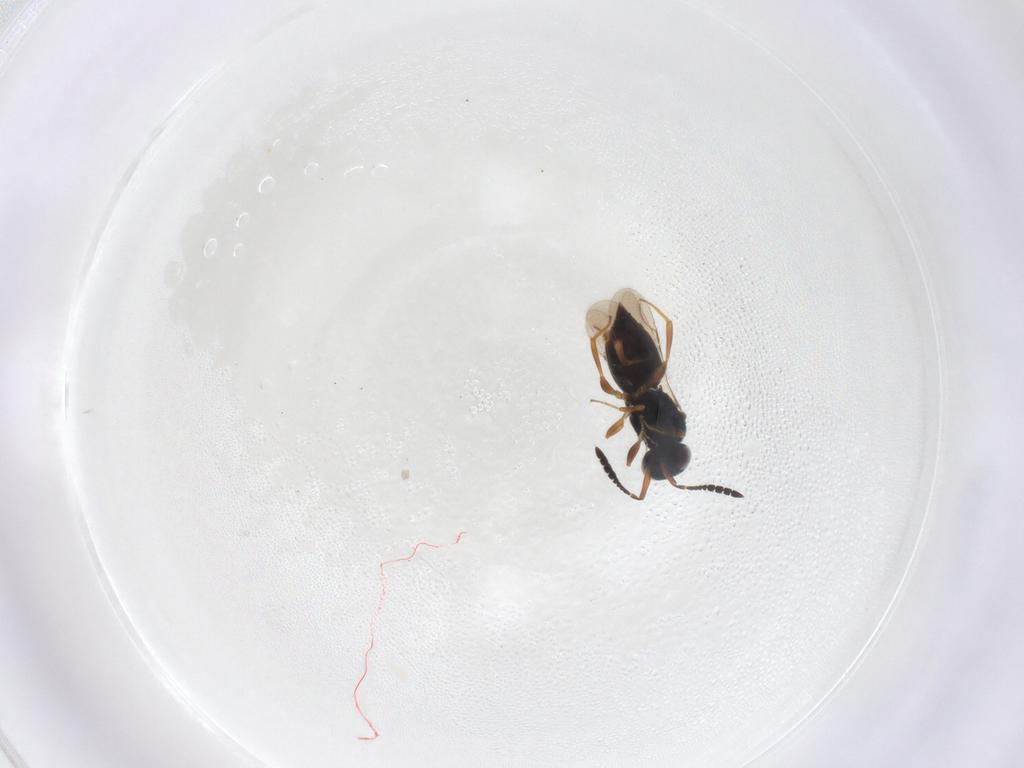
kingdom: Animalia
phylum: Arthropoda
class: Insecta
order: Hymenoptera
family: Ceraphronidae
